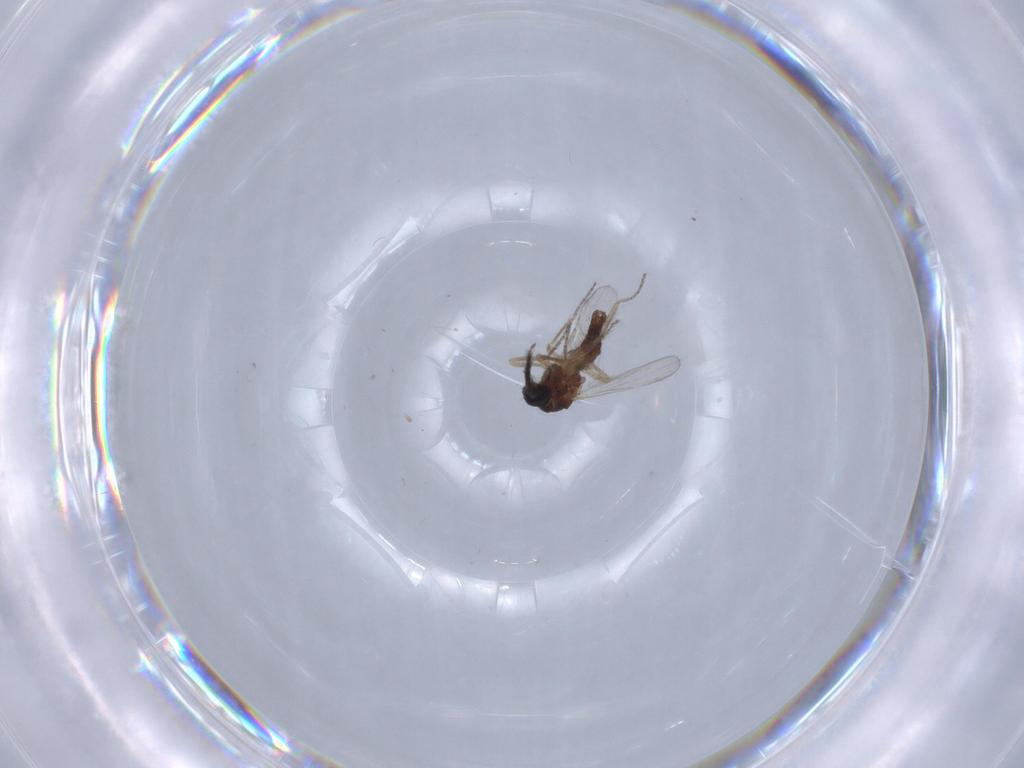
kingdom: Animalia
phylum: Arthropoda
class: Insecta
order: Diptera
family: Ceratopogonidae
